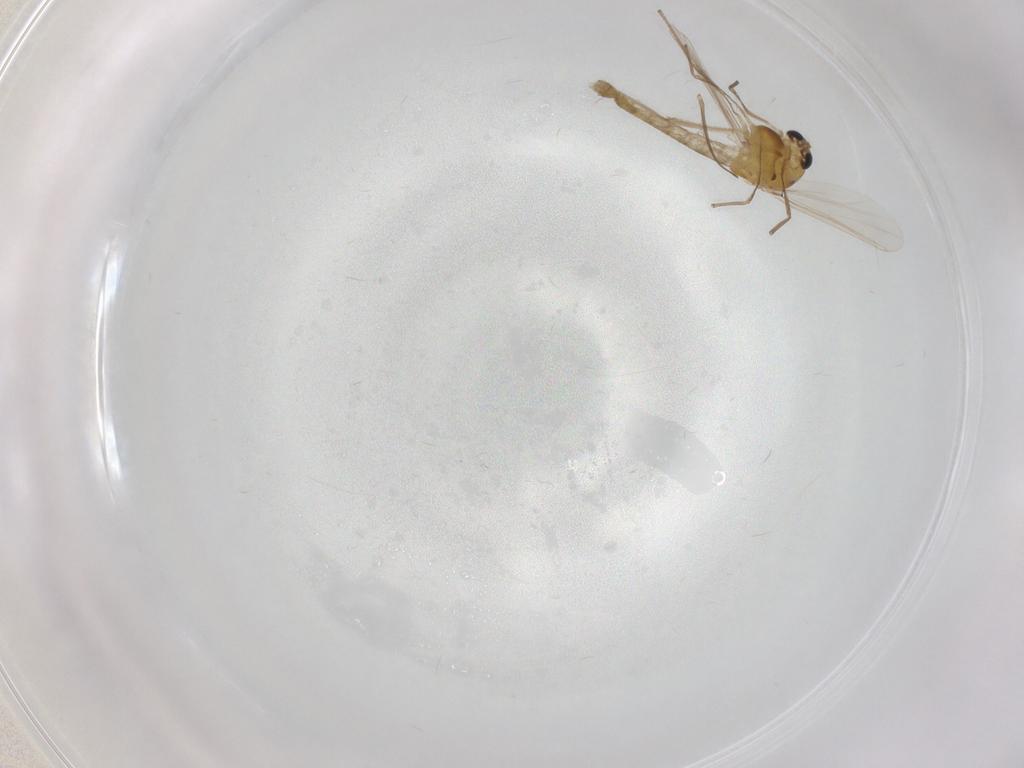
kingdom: Animalia
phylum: Arthropoda
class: Insecta
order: Diptera
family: Chironomidae
